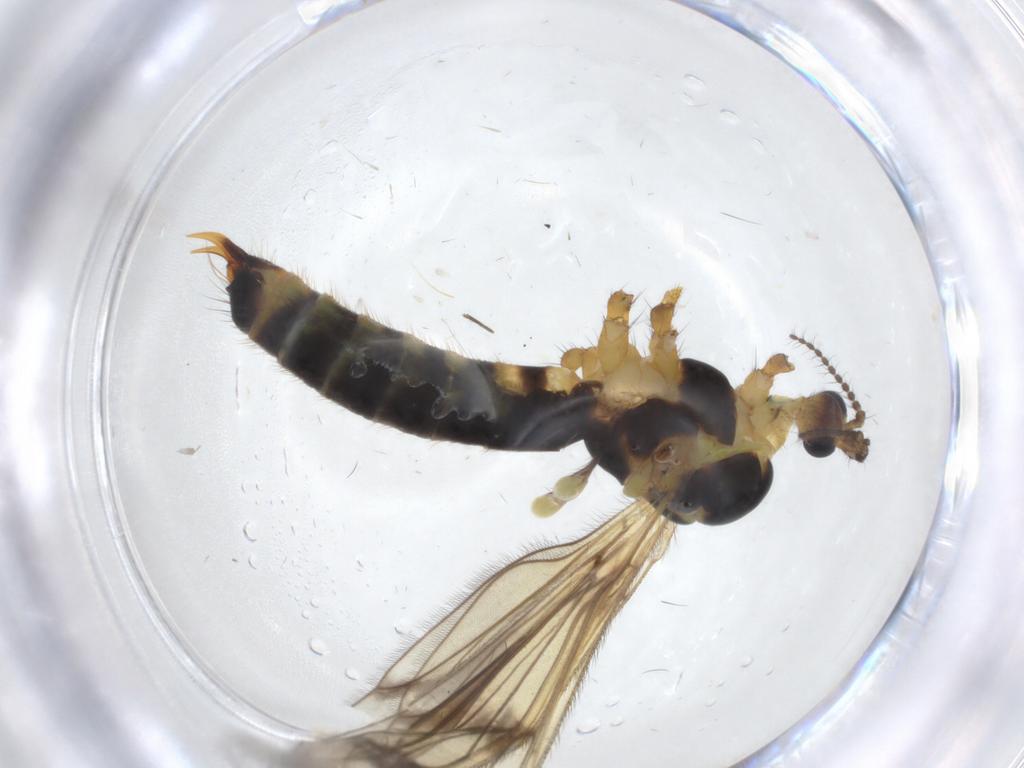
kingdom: Animalia
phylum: Arthropoda
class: Insecta
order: Diptera
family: Limoniidae
